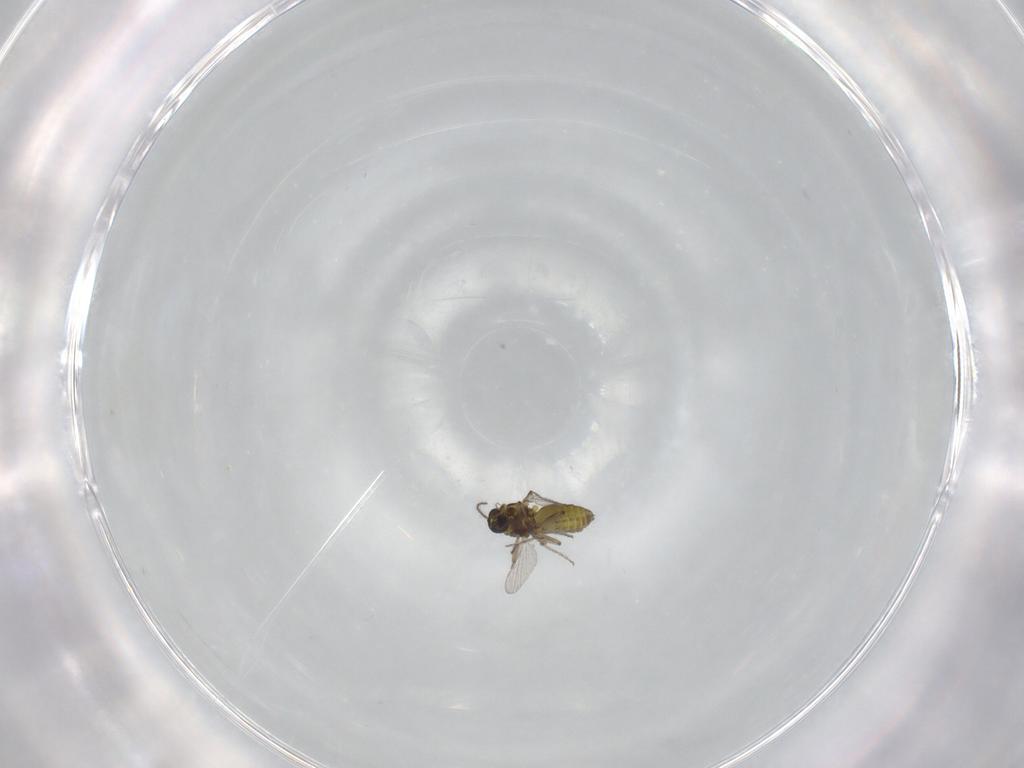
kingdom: Animalia
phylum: Arthropoda
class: Insecta
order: Diptera
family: Ceratopogonidae
